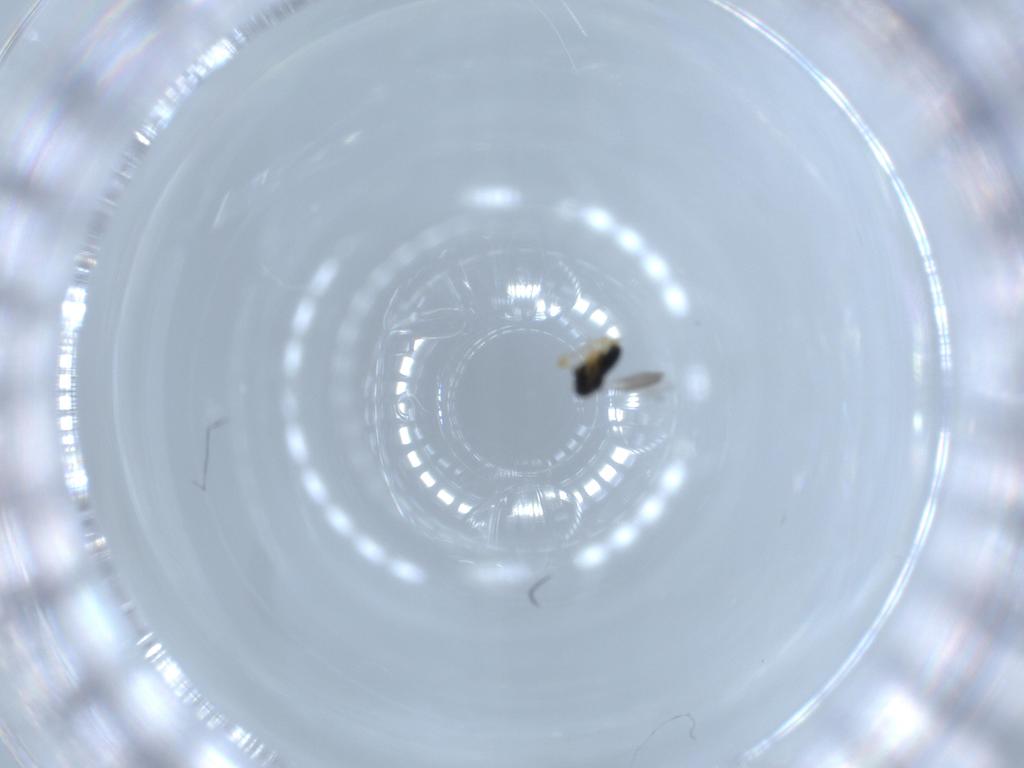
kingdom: Animalia
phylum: Arthropoda
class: Insecta
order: Hymenoptera
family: Scelionidae
